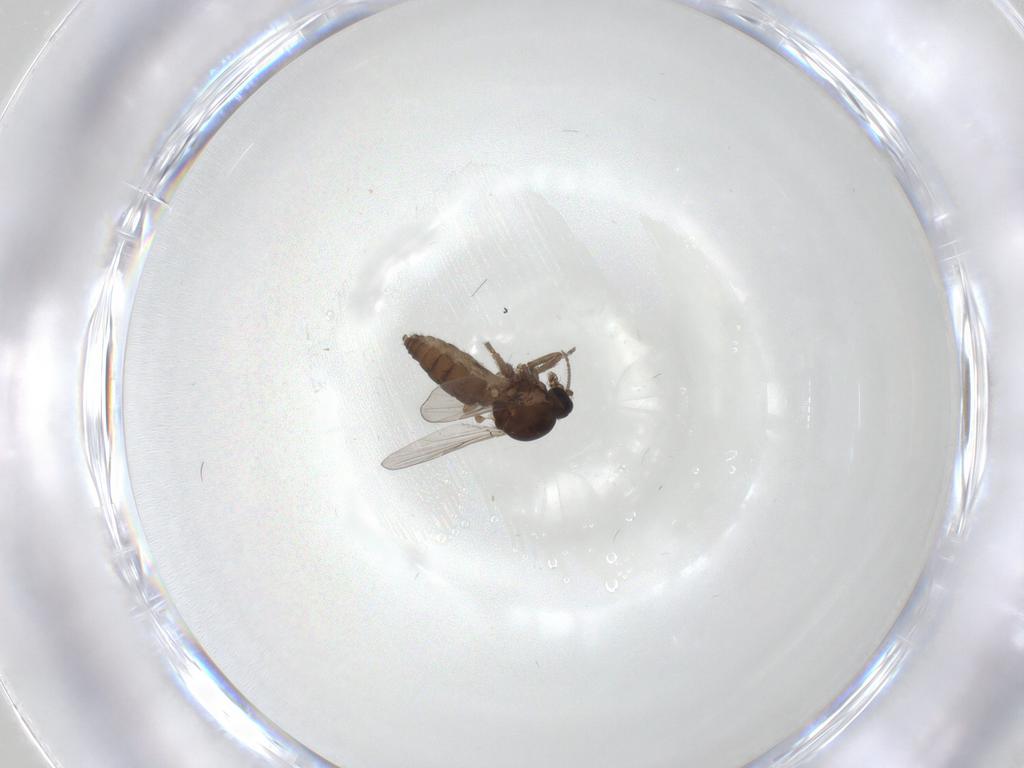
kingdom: Animalia
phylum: Arthropoda
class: Insecta
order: Diptera
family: Ceratopogonidae
